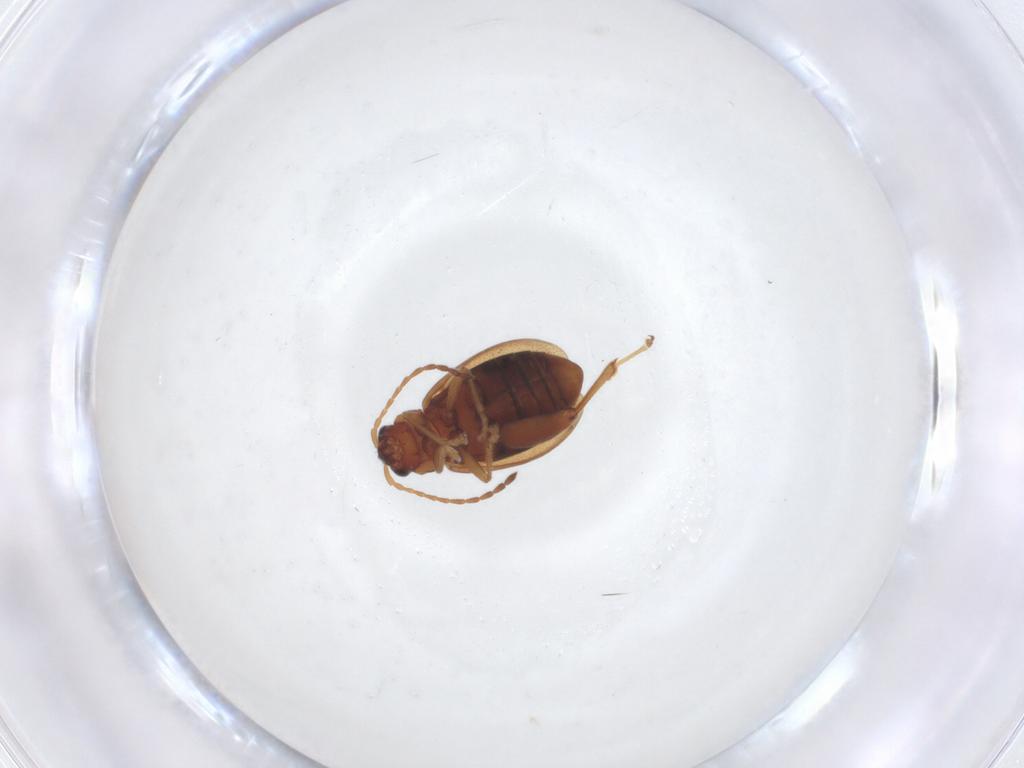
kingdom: Animalia
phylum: Arthropoda
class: Insecta
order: Coleoptera
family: Chrysomelidae
